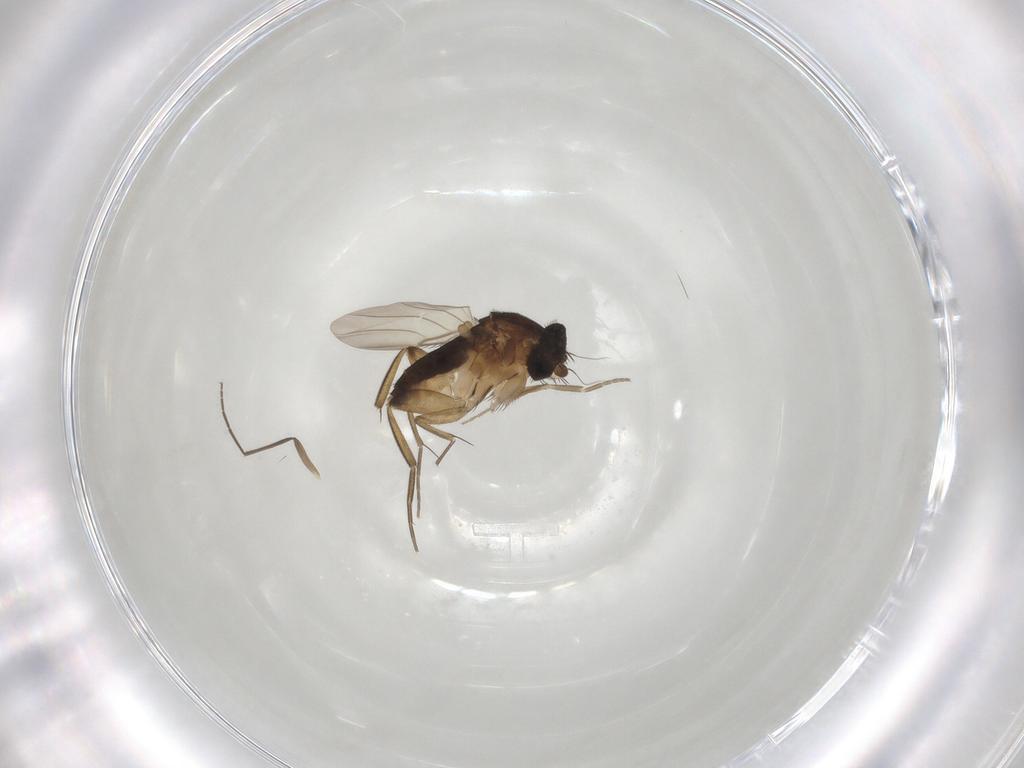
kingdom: Animalia
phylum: Arthropoda
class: Insecta
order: Diptera
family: Phoridae
